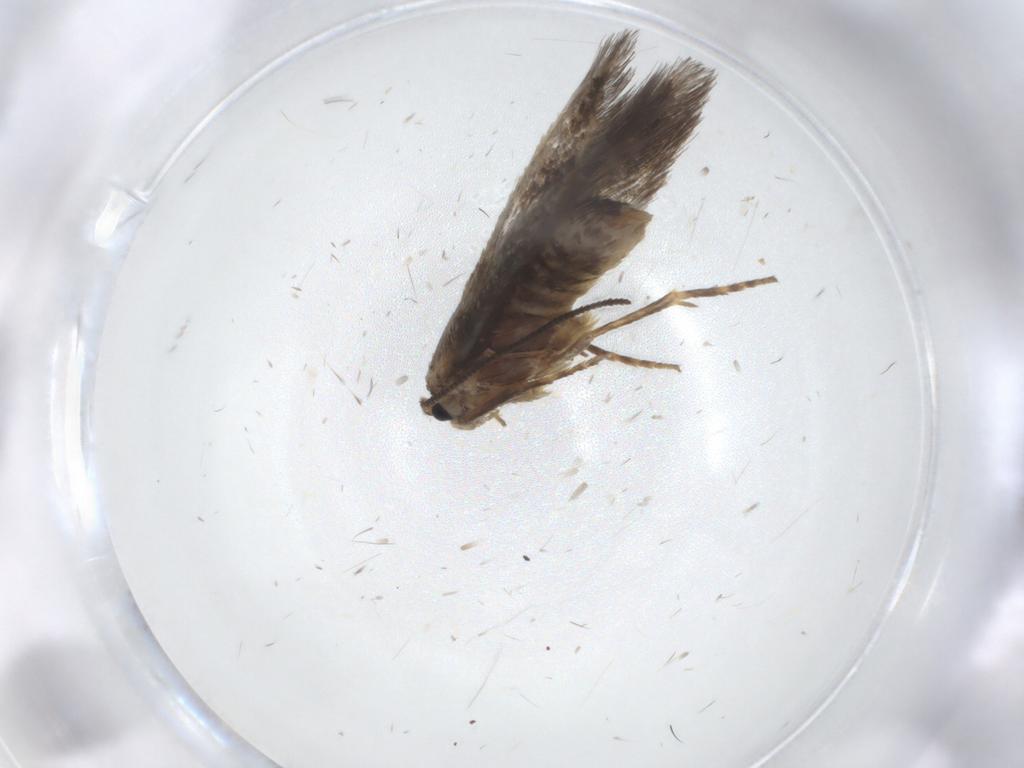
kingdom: Animalia
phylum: Arthropoda
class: Insecta
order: Lepidoptera
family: Nepticulidae
